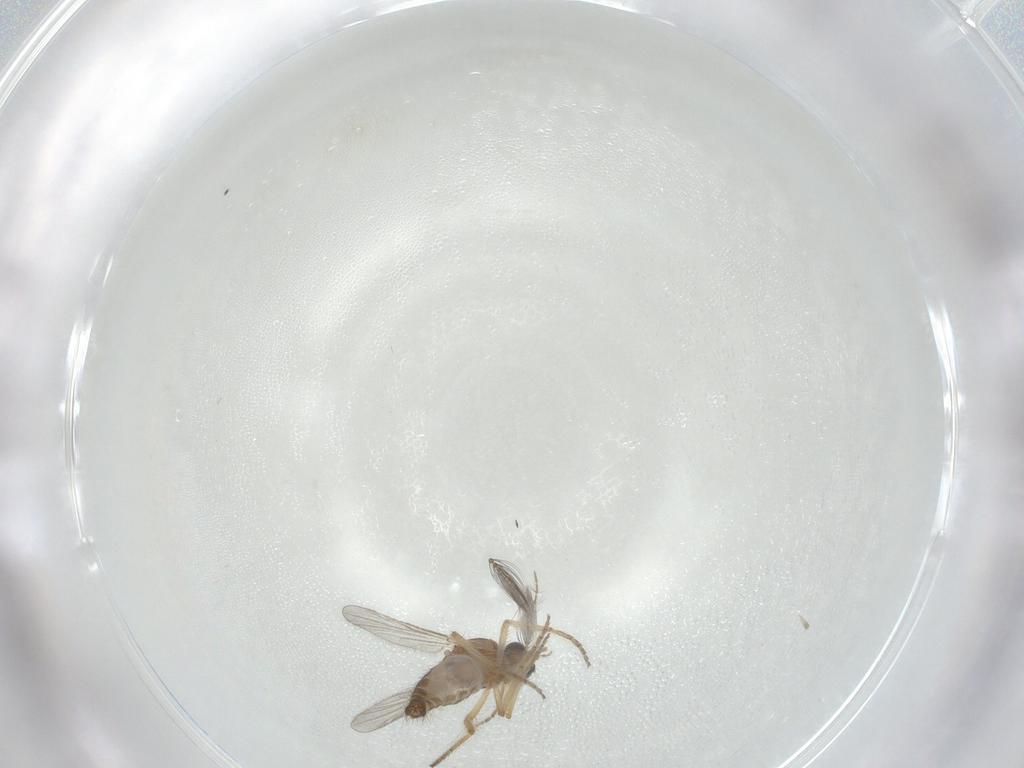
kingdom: Animalia
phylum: Arthropoda
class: Insecta
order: Diptera
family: Ceratopogonidae
